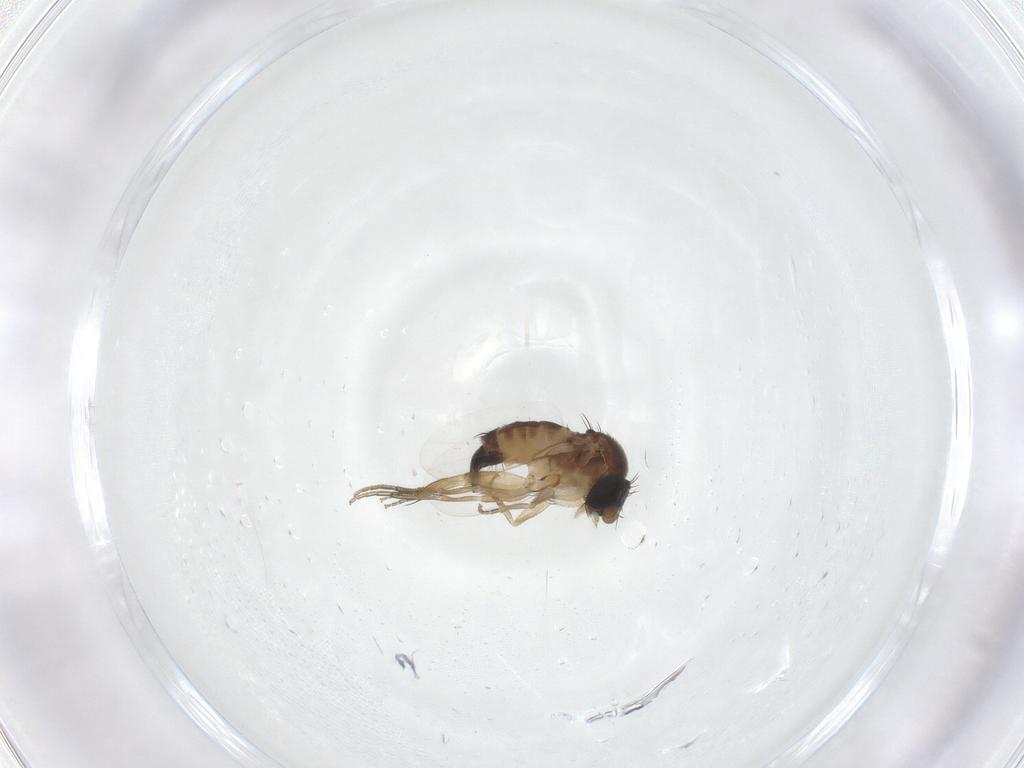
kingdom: Animalia
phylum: Arthropoda
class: Insecta
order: Diptera
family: Phoridae
